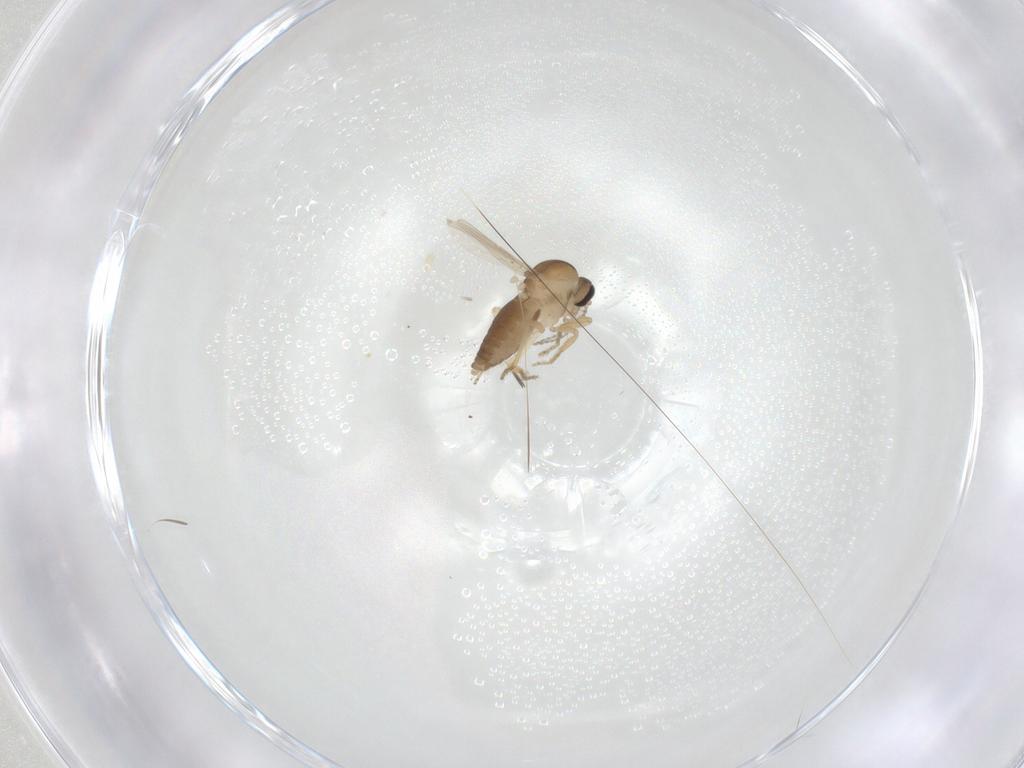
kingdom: Animalia
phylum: Arthropoda
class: Insecta
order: Diptera
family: Ceratopogonidae
